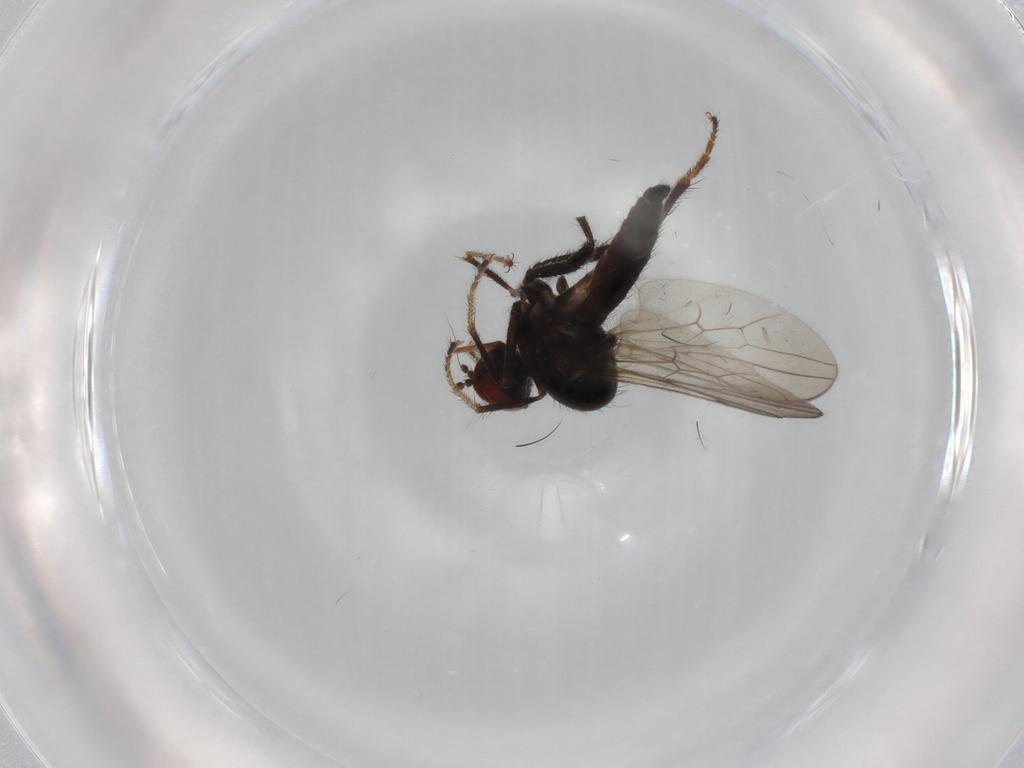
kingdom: Animalia
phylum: Arthropoda
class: Insecta
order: Diptera
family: Hybotidae
